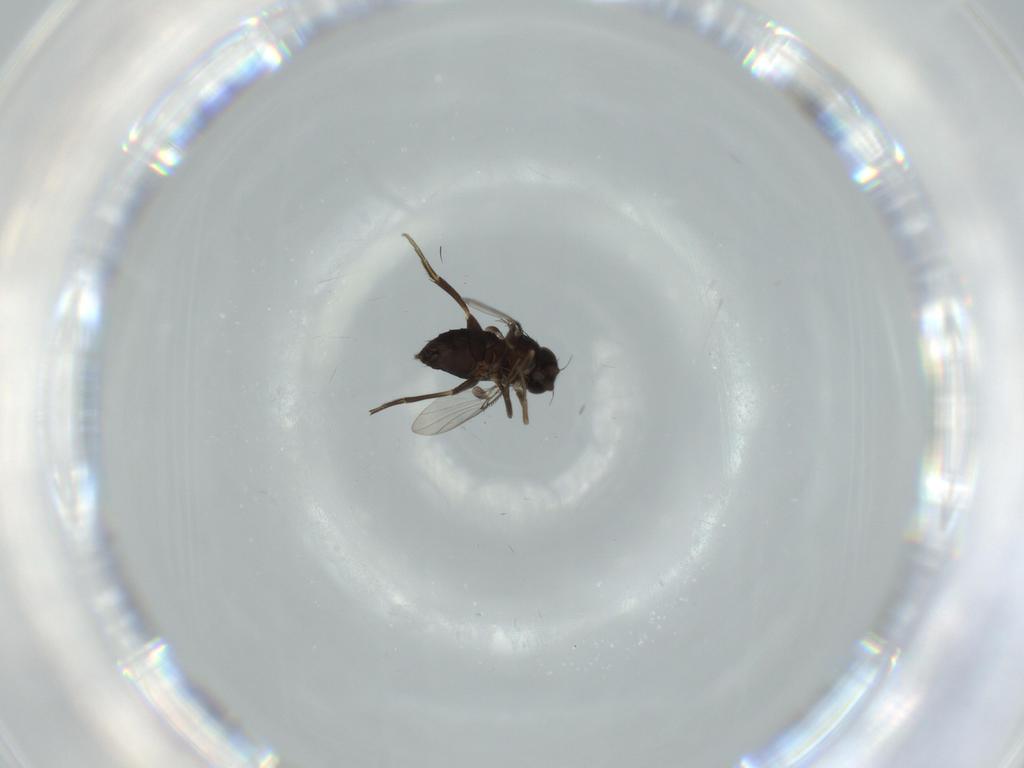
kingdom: Animalia
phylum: Arthropoda
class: Insecta
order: Diptera
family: Phoridae
